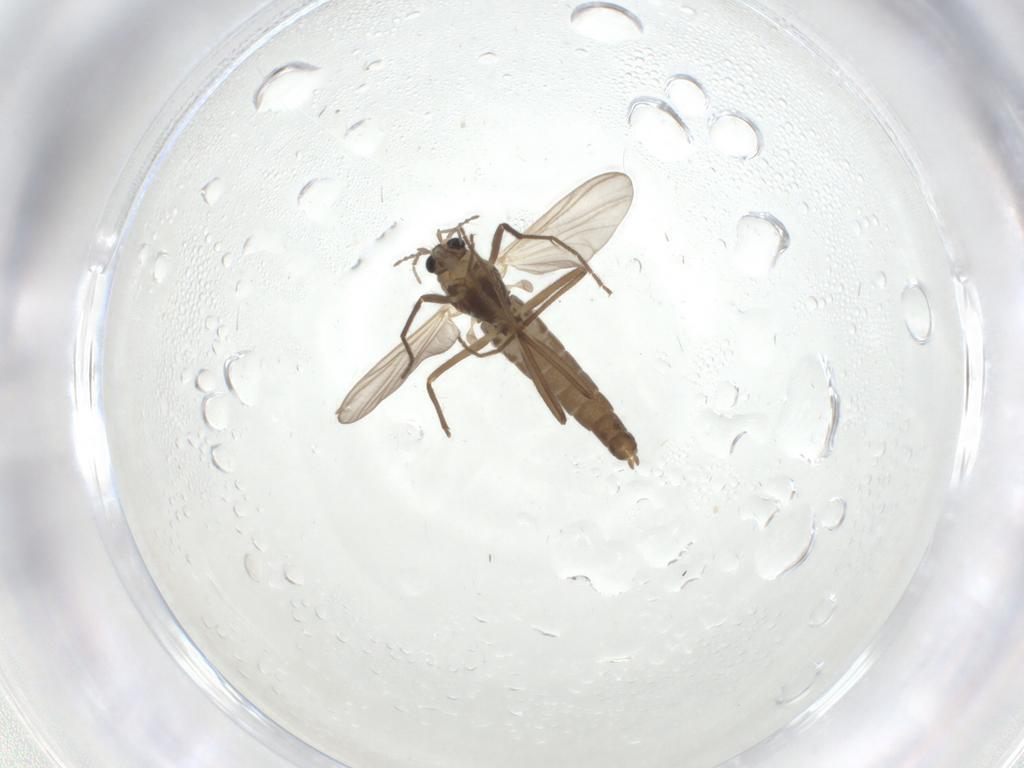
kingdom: Animalia
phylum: Arthropoda
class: Insecta
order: Diptera
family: Chironomidae
